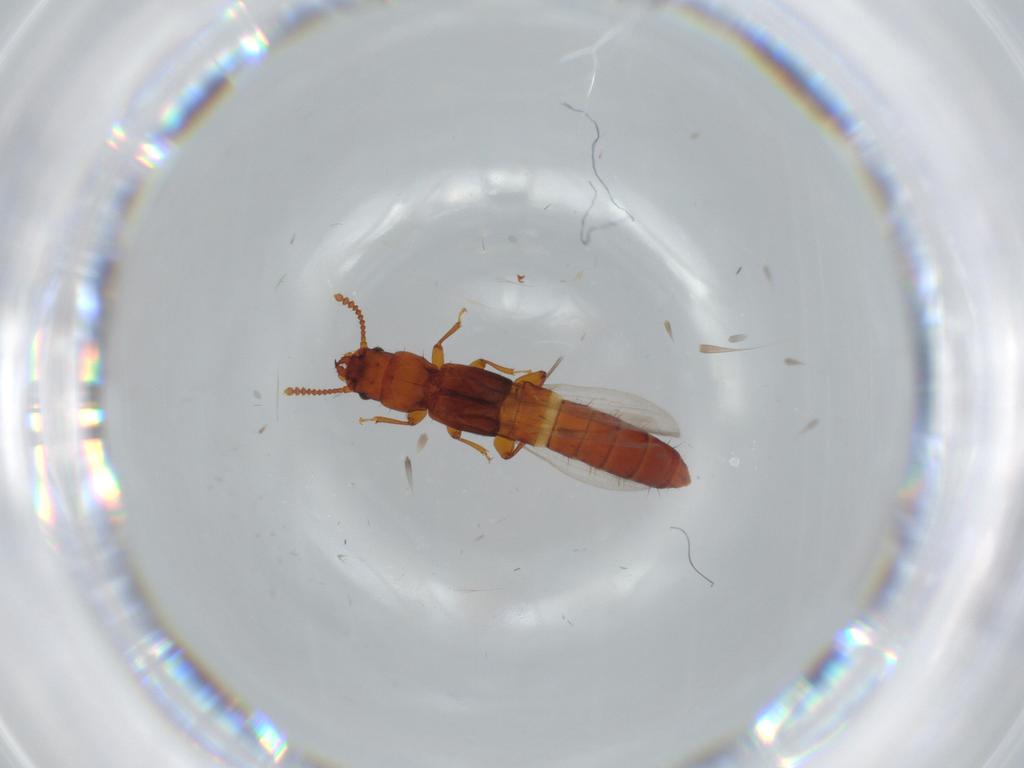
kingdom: Animalia
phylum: Arthropoda
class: Insecta
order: Coleoptera
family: Staphylinidae
